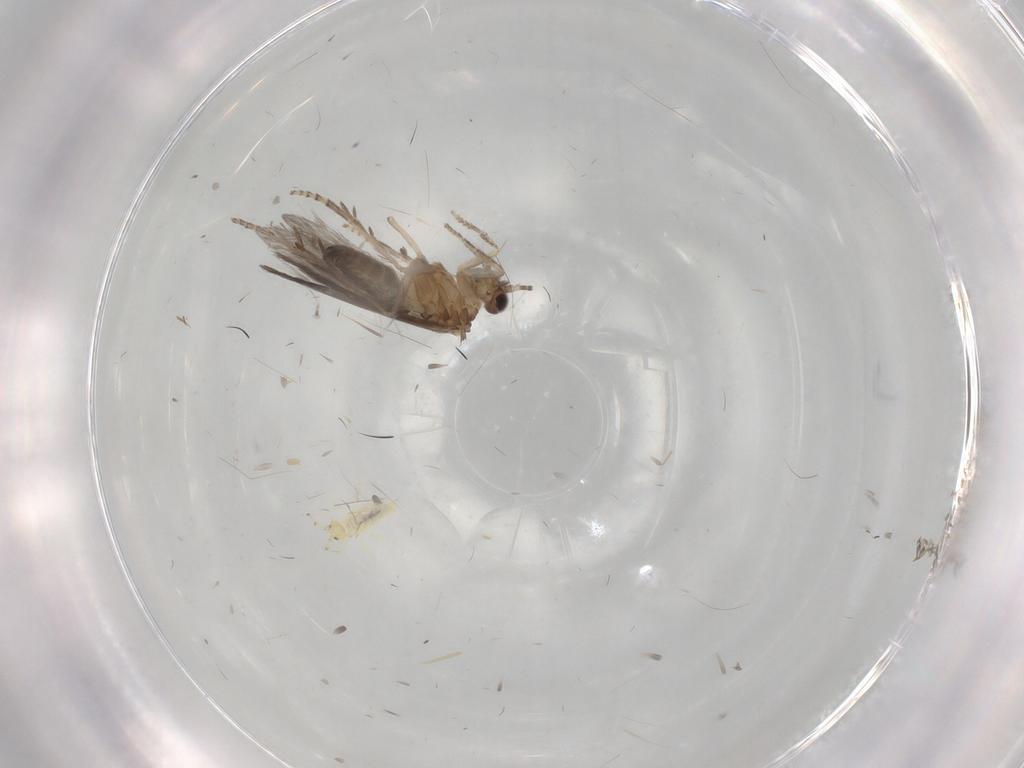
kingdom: Animalia
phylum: Arthropoda
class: Insecta
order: Trichoptera
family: Hydroptilidae
